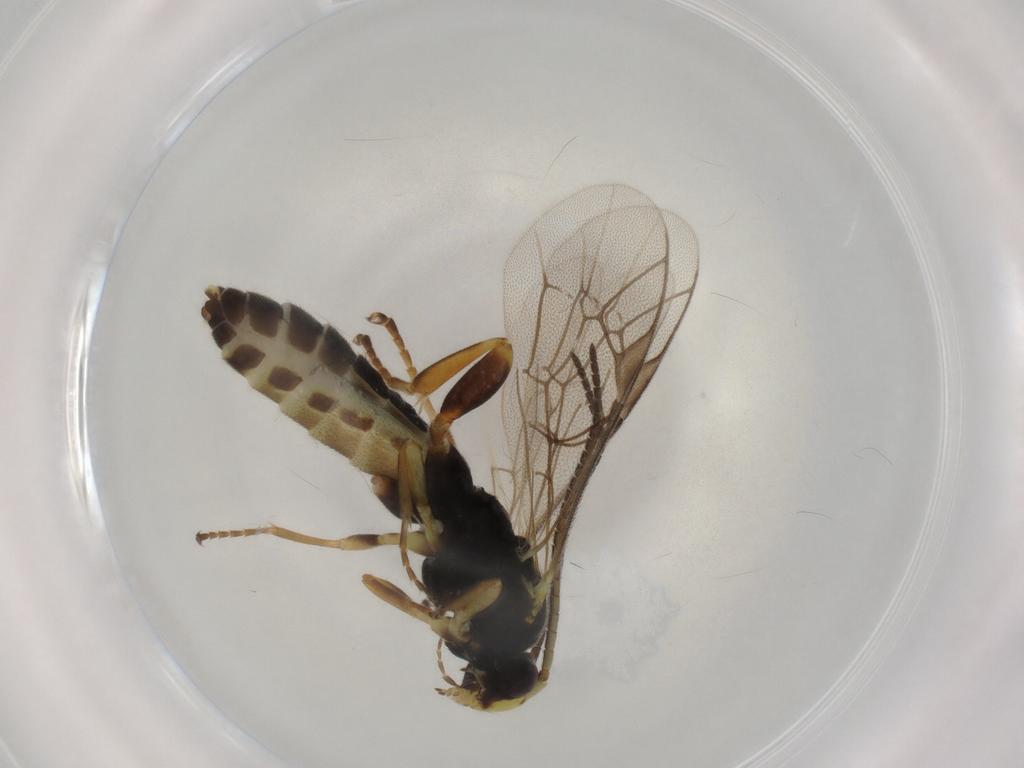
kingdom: Animalia
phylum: Arthropoda
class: Insecta
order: Hymenoptera
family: Ichneumonidae
